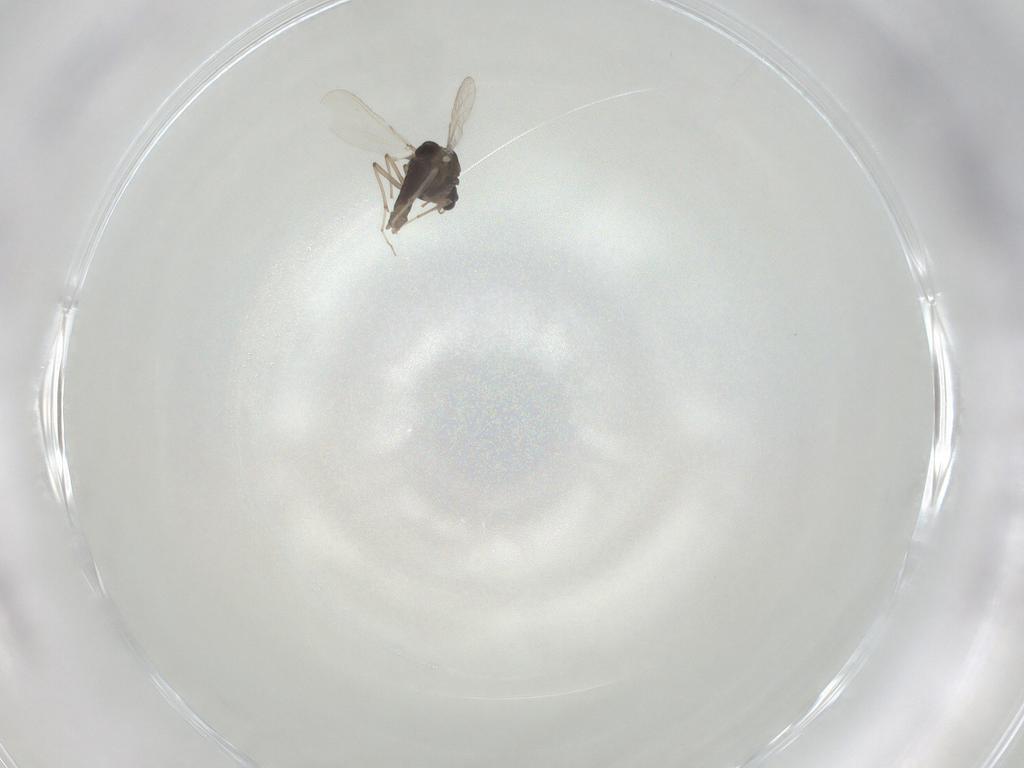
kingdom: Animalia
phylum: Arthropoda
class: Insecta
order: Diptera
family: Chironomidae
